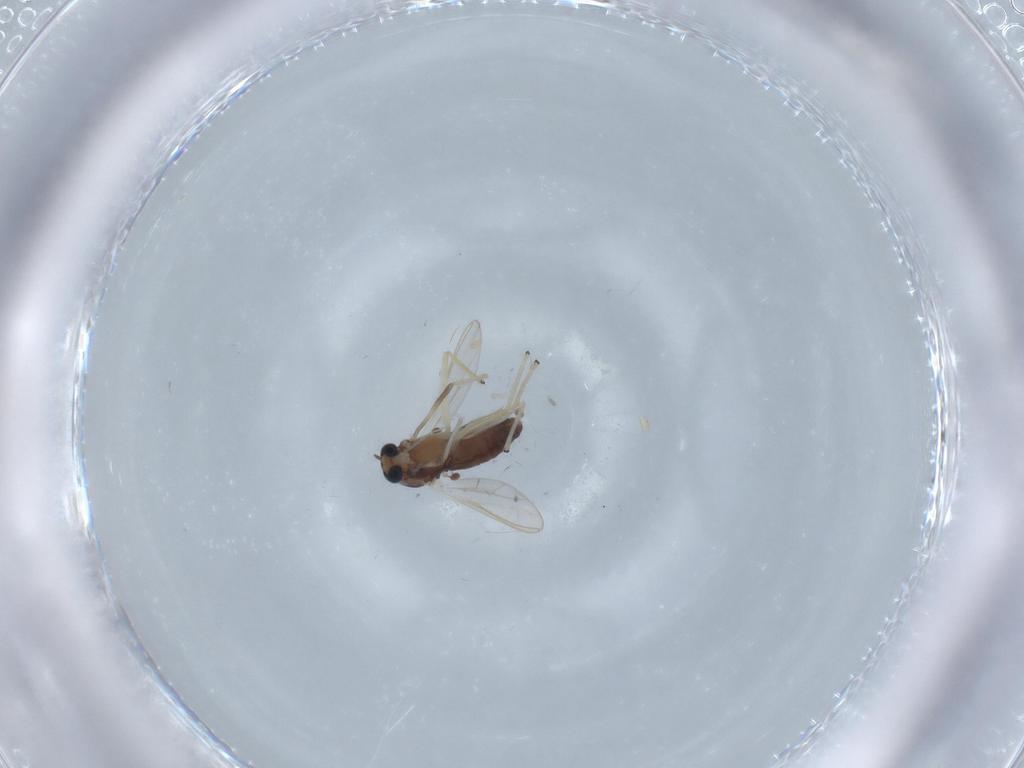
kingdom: Animalia
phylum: Arthropoda
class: Insecta
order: Diptera
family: Chironomidae
